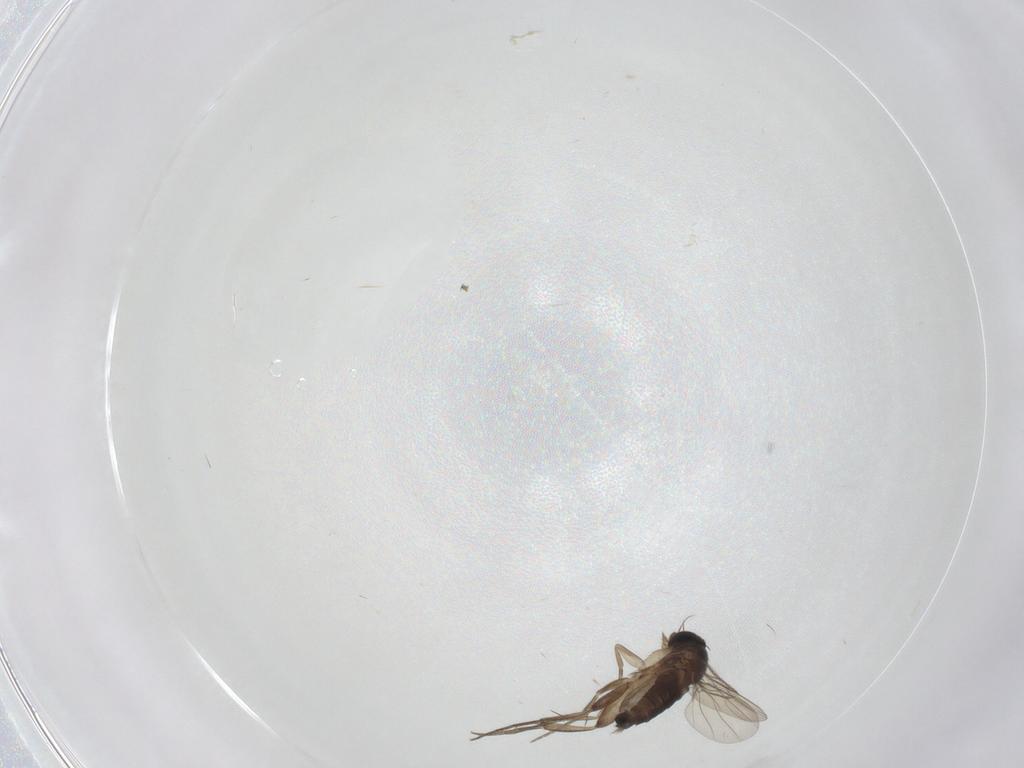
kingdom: Animalia
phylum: Arthropoda
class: Insecta
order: Diptera
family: Phoridae
